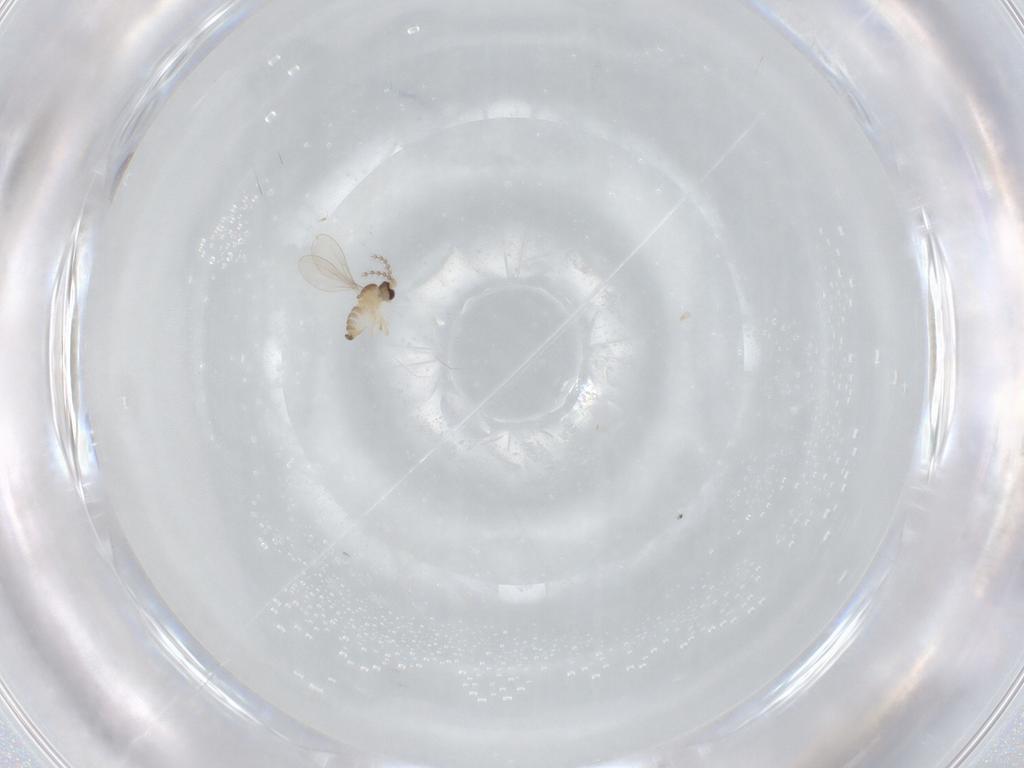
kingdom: Animalia
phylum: Arthropoda
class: Insecta
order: Diptera
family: Cecidomyiidae
